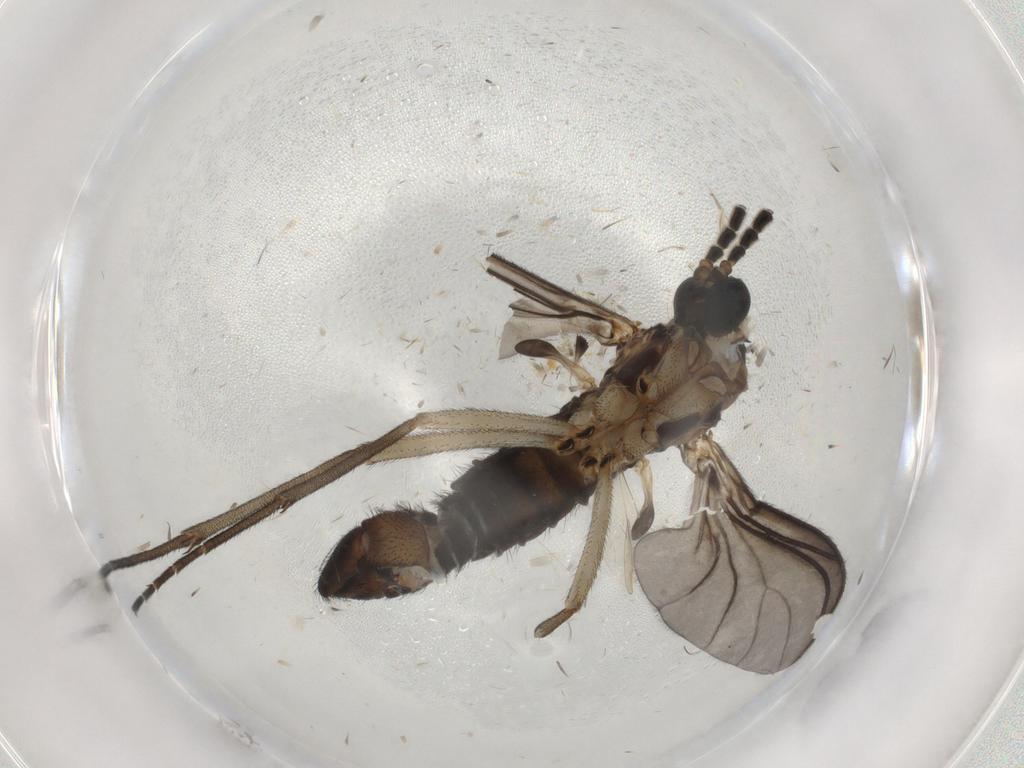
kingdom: Animalia
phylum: Arthropoda
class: Insecta
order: Diptera
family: Sciaridae
